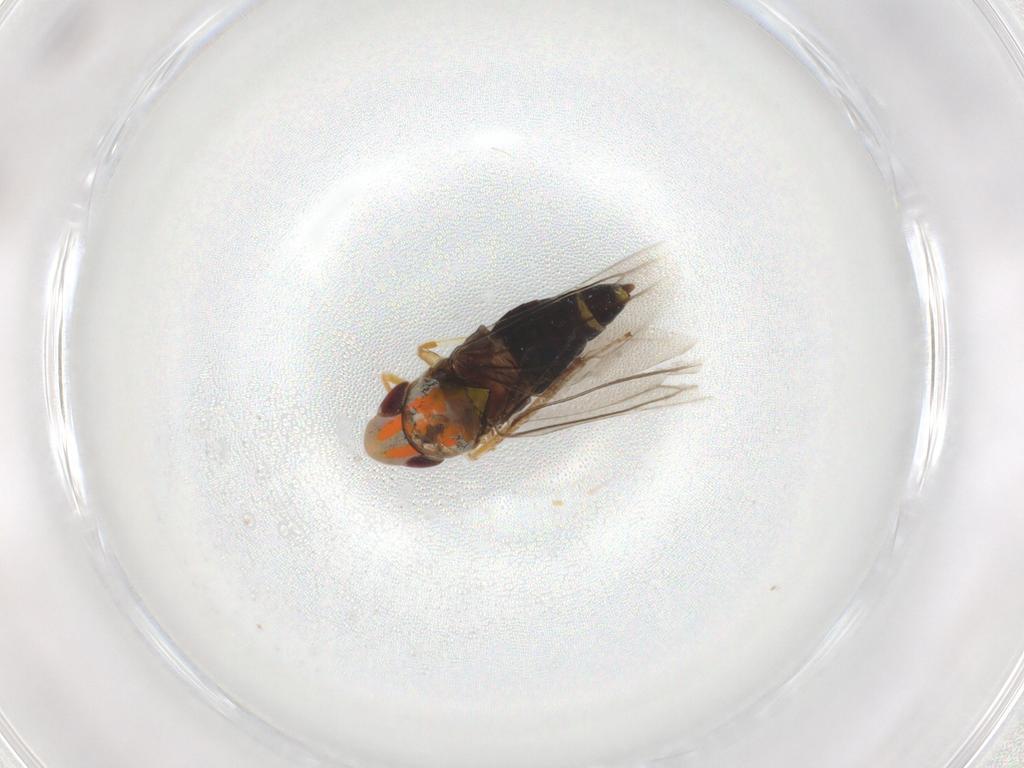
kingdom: Animalia
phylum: Arthropoda
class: Insecta
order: Hemiptera
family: Cicadellidae
